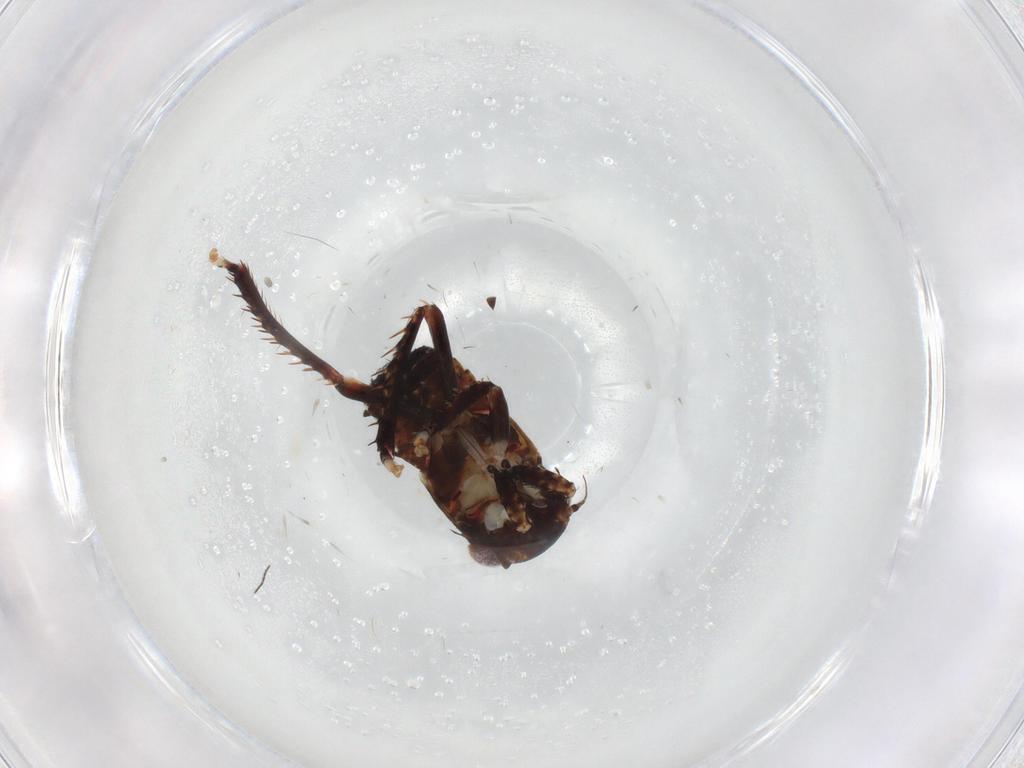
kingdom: Animalia
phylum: Arthropoda
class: Insecta
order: Hemiptera
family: Cicadellidae
